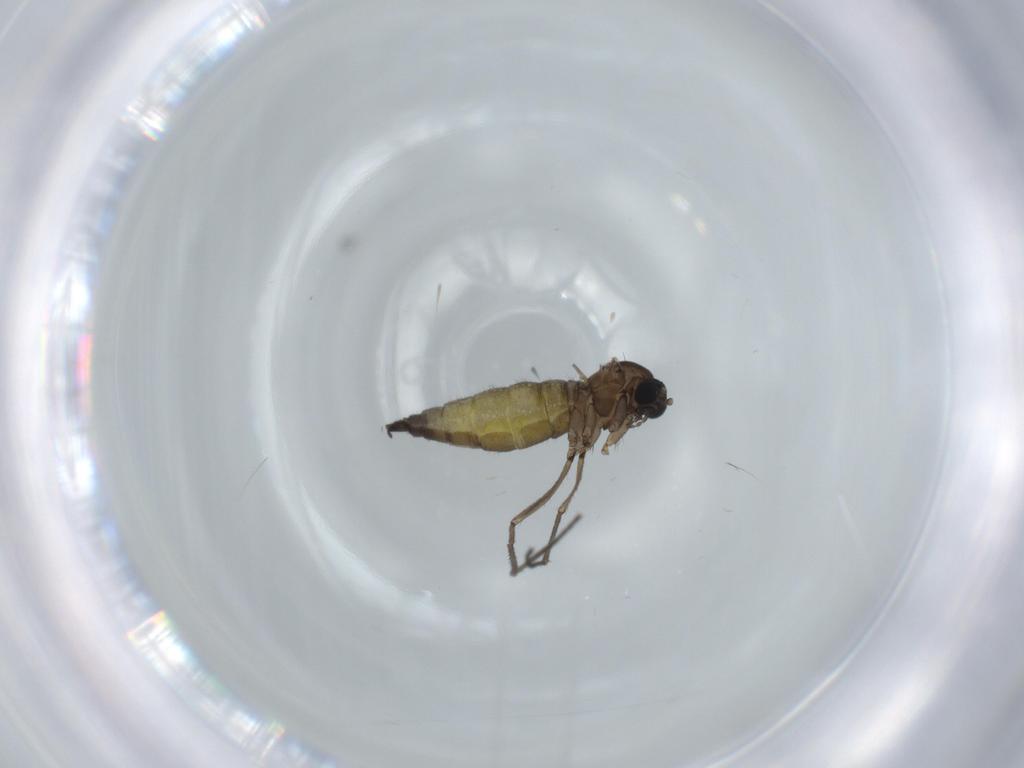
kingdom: Animalia
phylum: Arthropoda
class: Insecta
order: Diptera
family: Sciaridae
